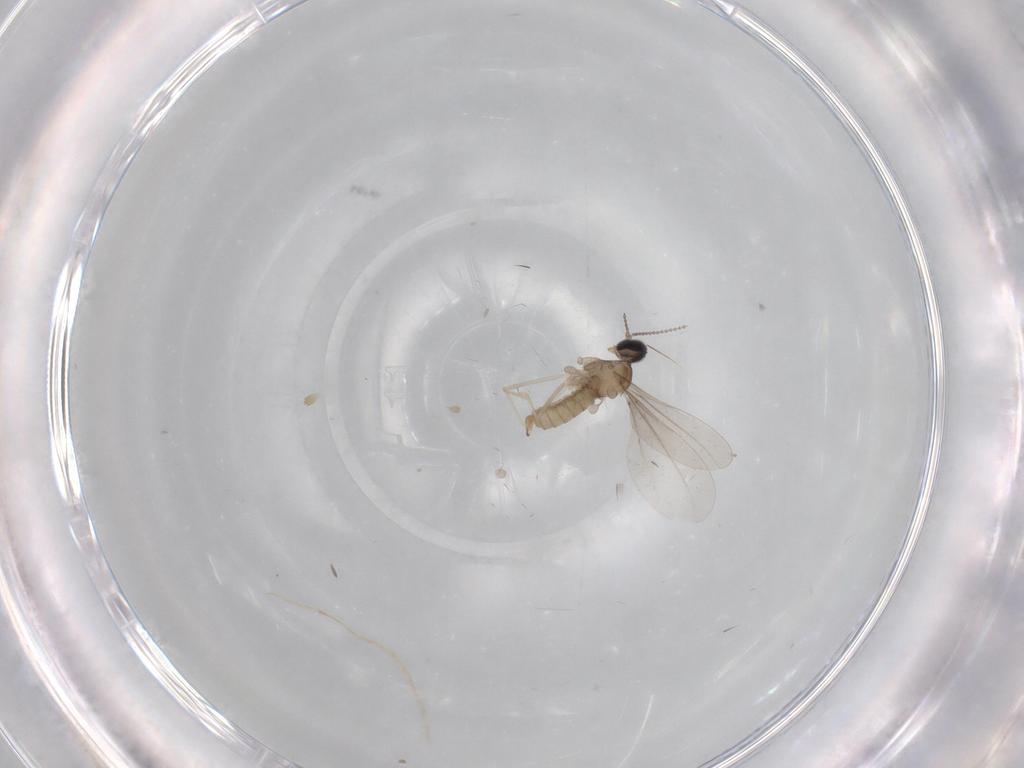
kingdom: Animalia
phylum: Arthropoda
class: Insecta
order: Diptera
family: Cecidomyiidae
